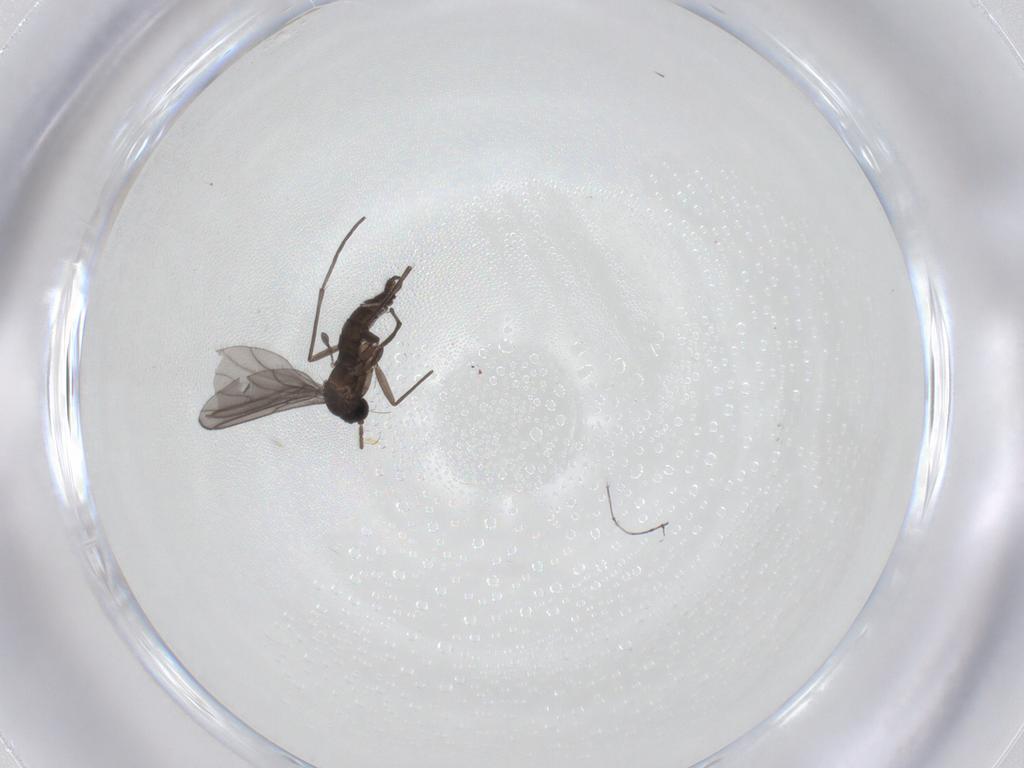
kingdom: Animalia
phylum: Arthropoda
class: Insecta
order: Diptera
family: Sciaridae
